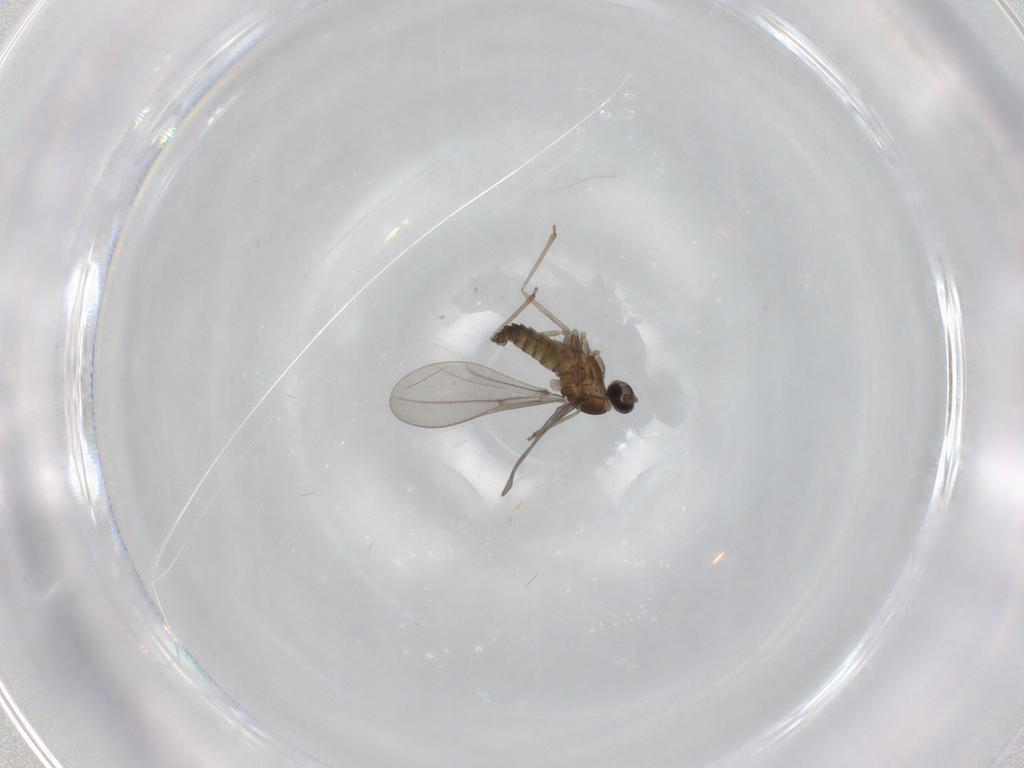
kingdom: Animalia
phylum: Arthropoda
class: Insecta
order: Diptera
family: Cecidomyiidae
